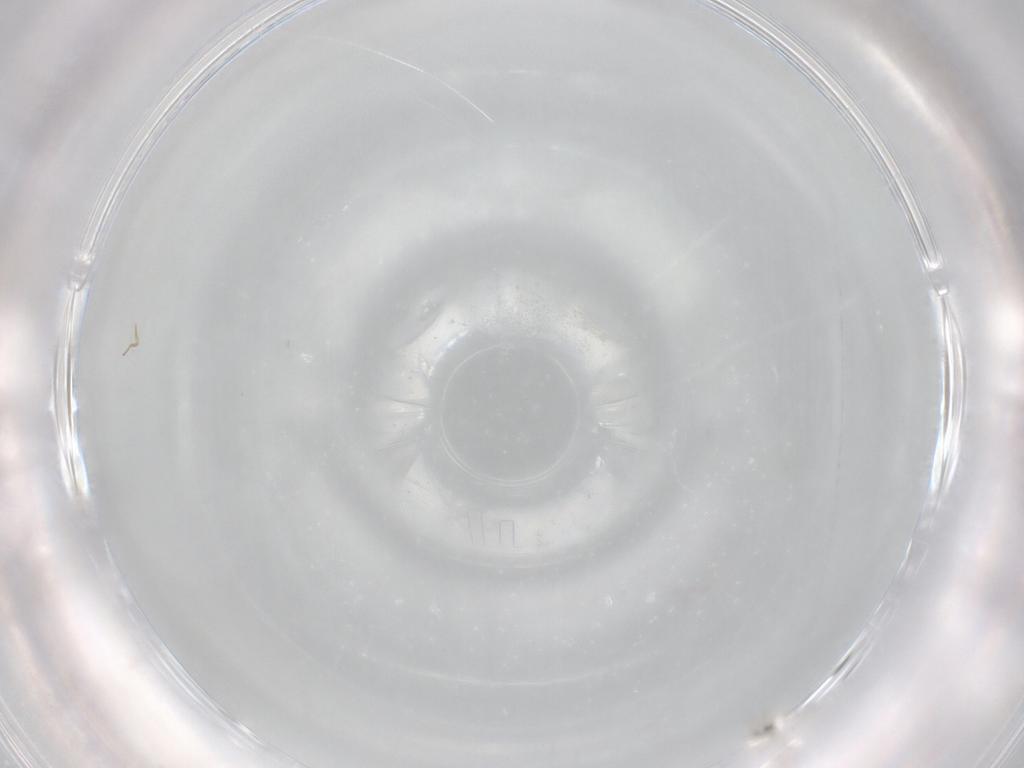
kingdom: Animalia
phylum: Arthropoda
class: Insecta
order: Hymenoptera
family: Mymaridae
